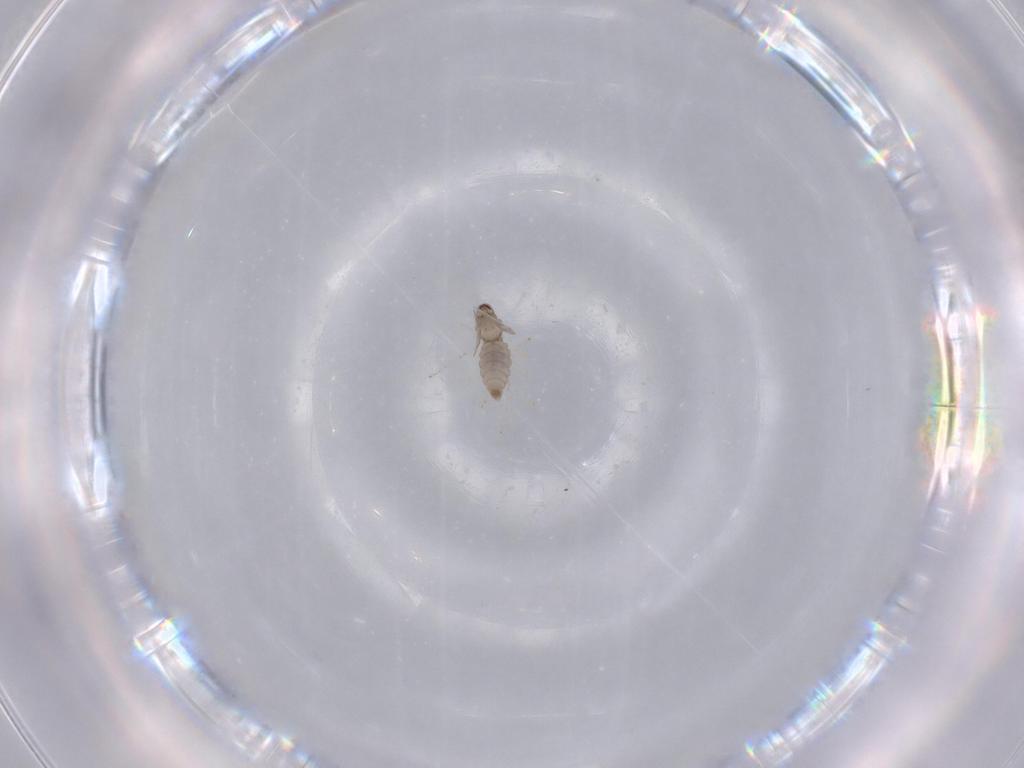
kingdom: Animalia
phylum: Arthropoda
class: Insecta
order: Diptera
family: Cecidomyiidae
